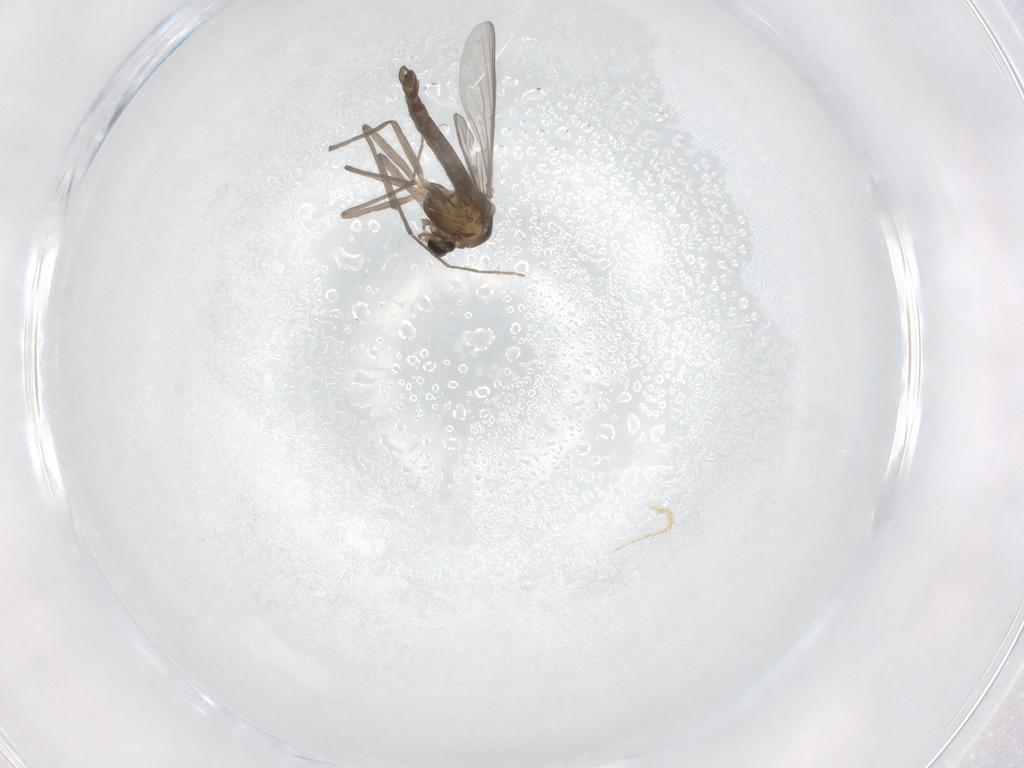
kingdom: Animalia
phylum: Arthropoda
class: Insecta
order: Diptera
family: Chironomidae
